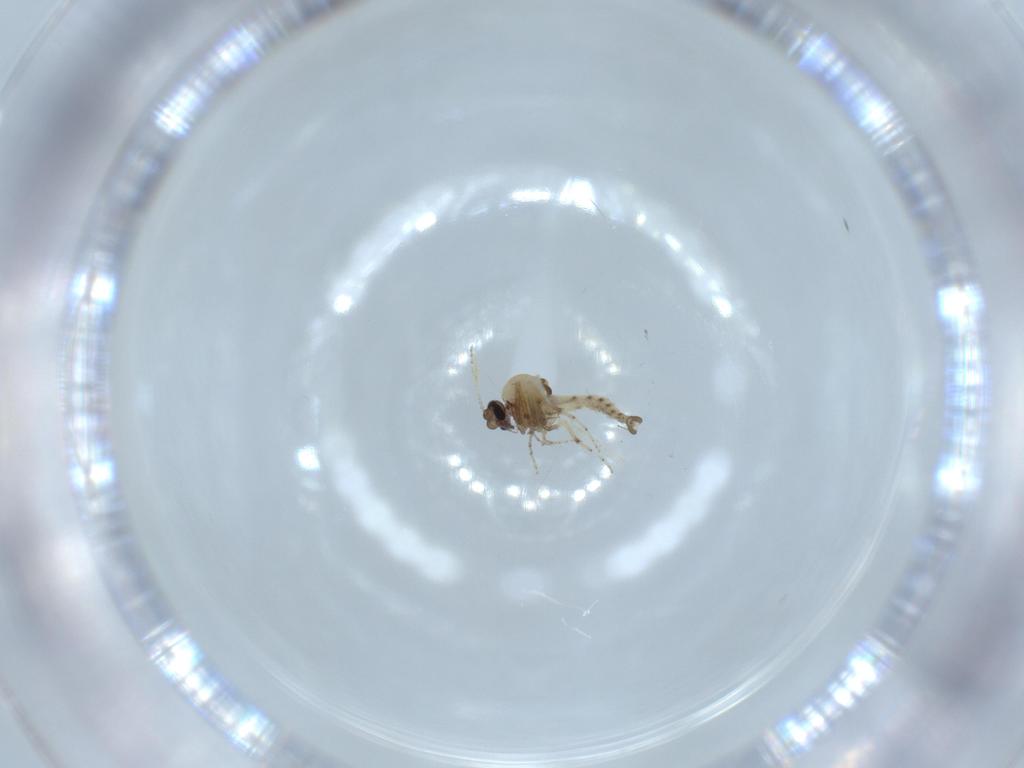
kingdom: Animalia
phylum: Arthropoda
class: Insecta
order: Diptera
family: Ceratopogonidae
